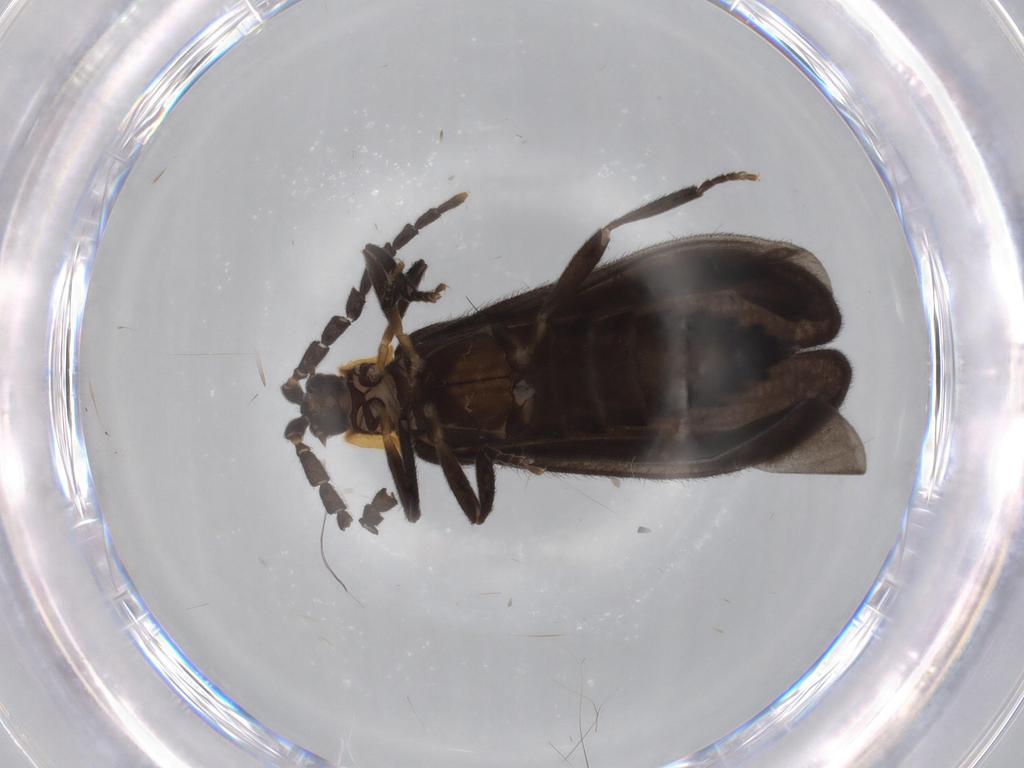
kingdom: Animalia
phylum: Arthropoda
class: Insecta
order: Coleoptera
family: Lycidae
